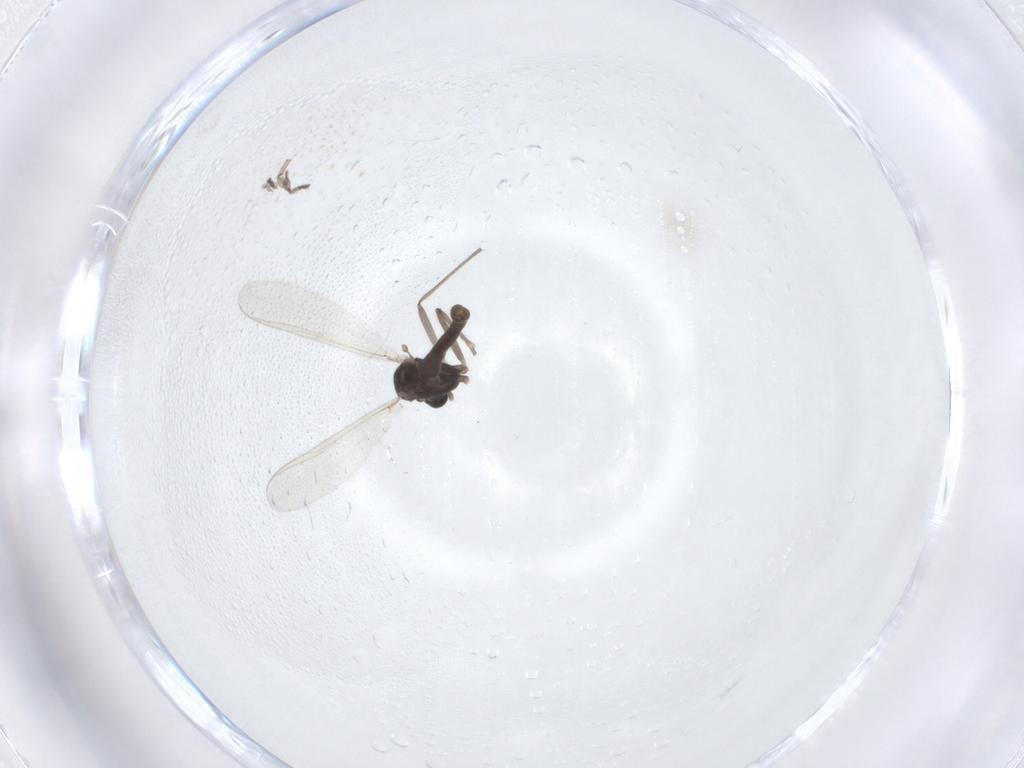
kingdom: Animalia
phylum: Arthropoda
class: Insecta
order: Diptera
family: Chironomidae
